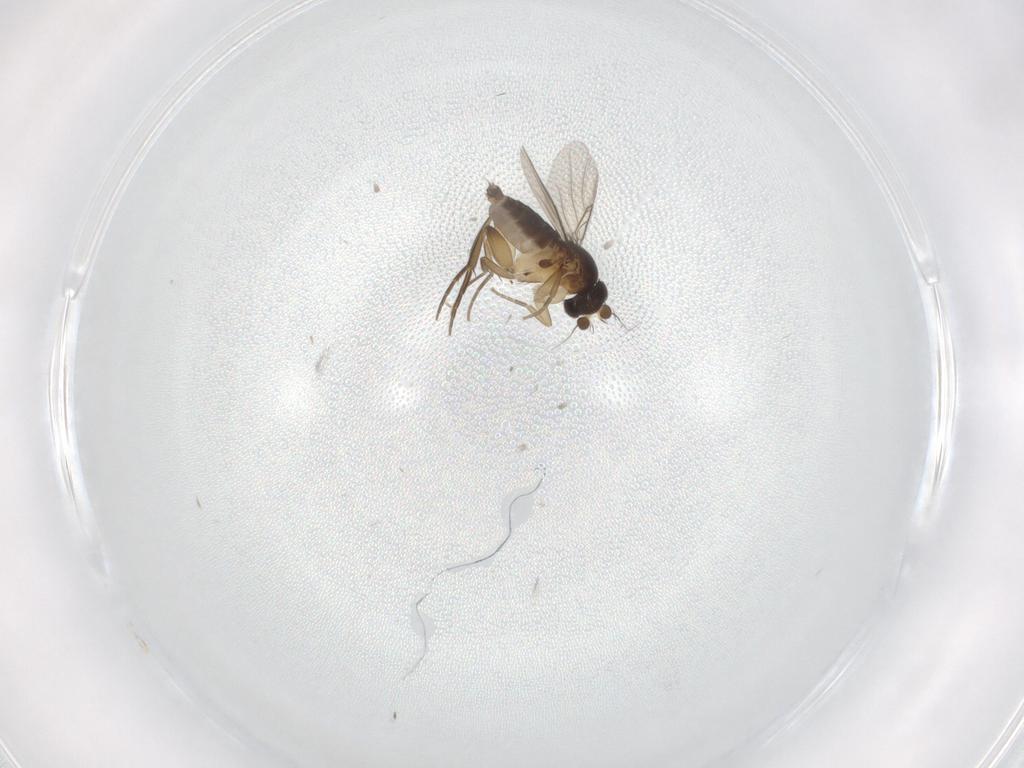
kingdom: Animalia
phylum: Arthropoda
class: Insecta
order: Diptera
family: Phoridae
